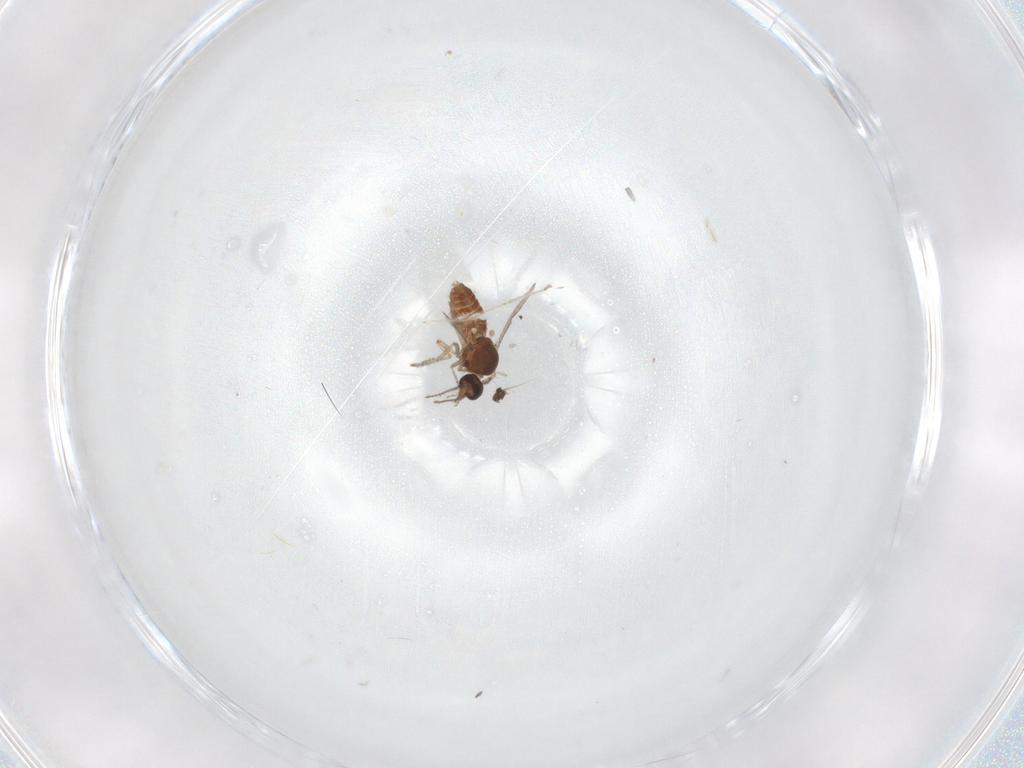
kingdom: Animalia
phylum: Arthropoda
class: Insecta
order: Diptera
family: Ceratopogonidae
